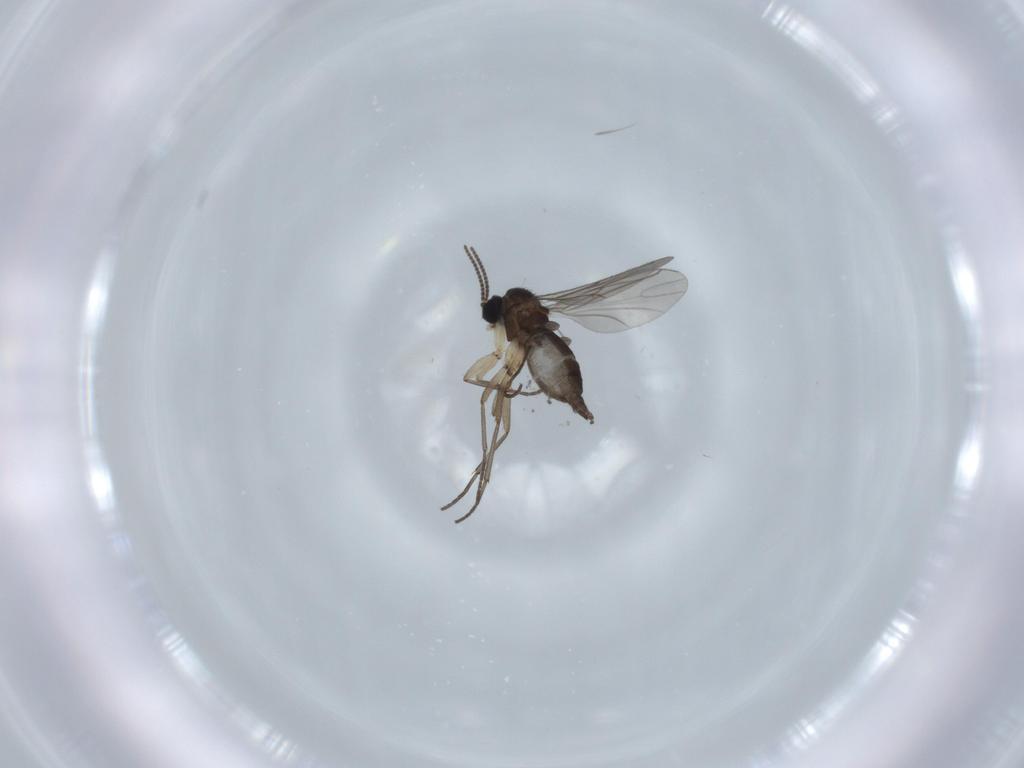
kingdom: Animalia
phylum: Arthropoda
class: Insecta
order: Diptera
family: Sciaridae
